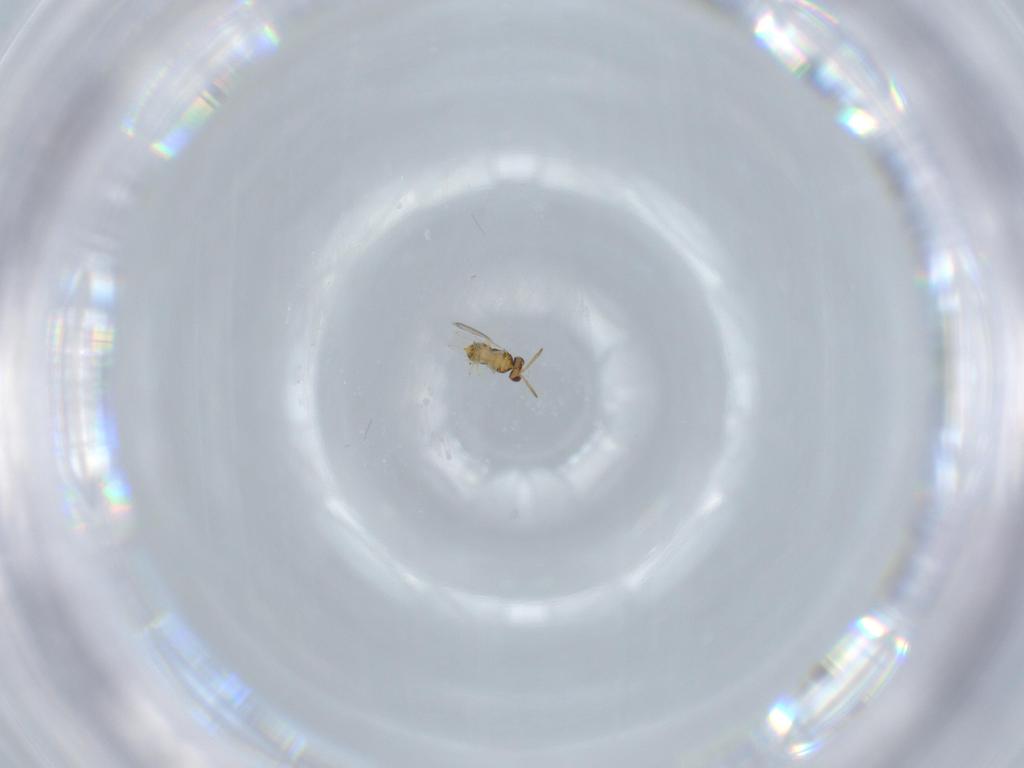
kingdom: Animalia
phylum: Arthropoda
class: Insecta
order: Hymenoptera
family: Aphelinidae
